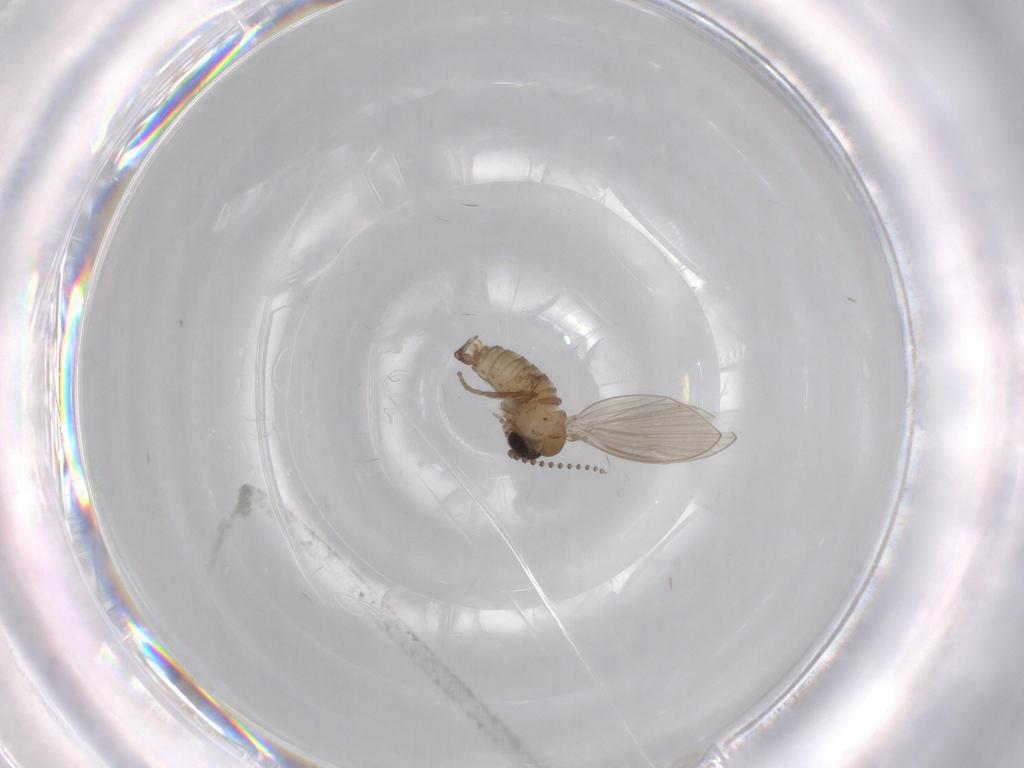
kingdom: Animalia
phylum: Arthropoda
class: Insecta
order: Diptera
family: Psychodidae
